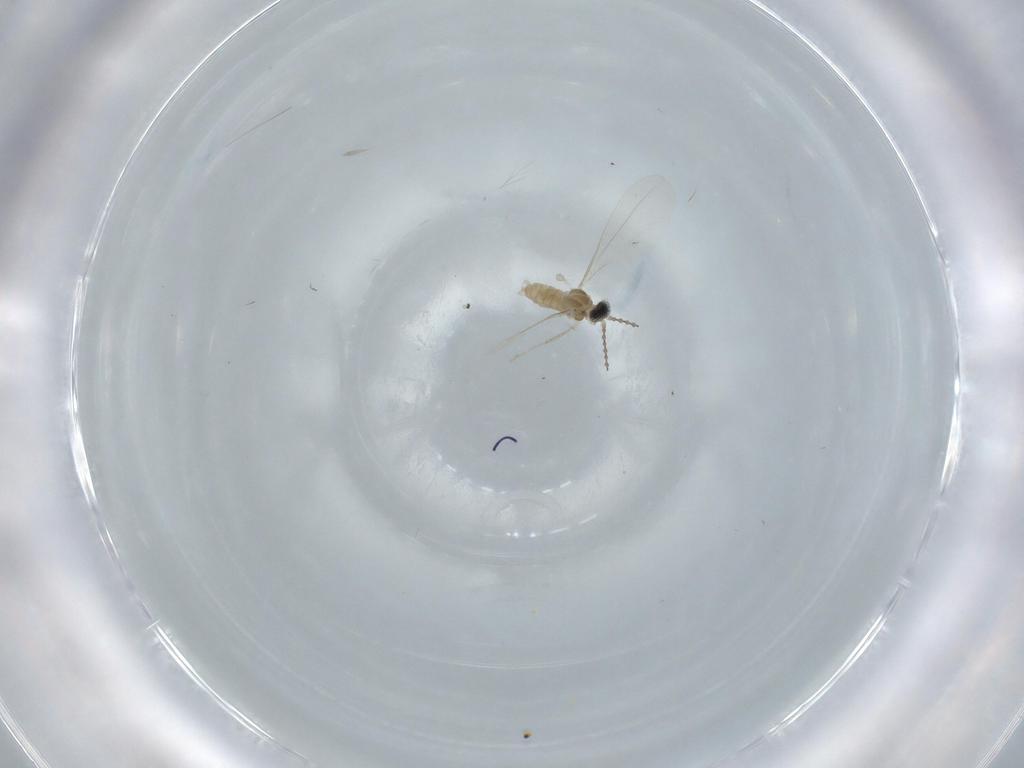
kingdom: Animalia
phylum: Arthropoda
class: Insecta
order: Diptera
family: Cecidomyiidae
